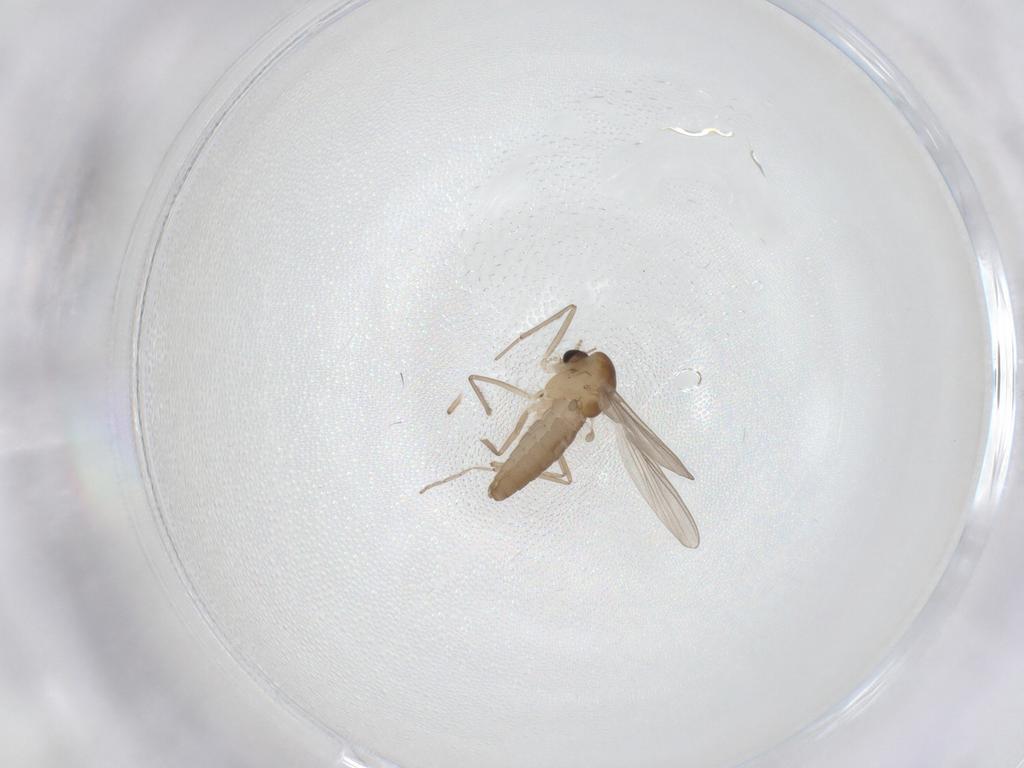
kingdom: Animalia
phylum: Arthropoda
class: Insecta
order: Diptera
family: Chironomidae
